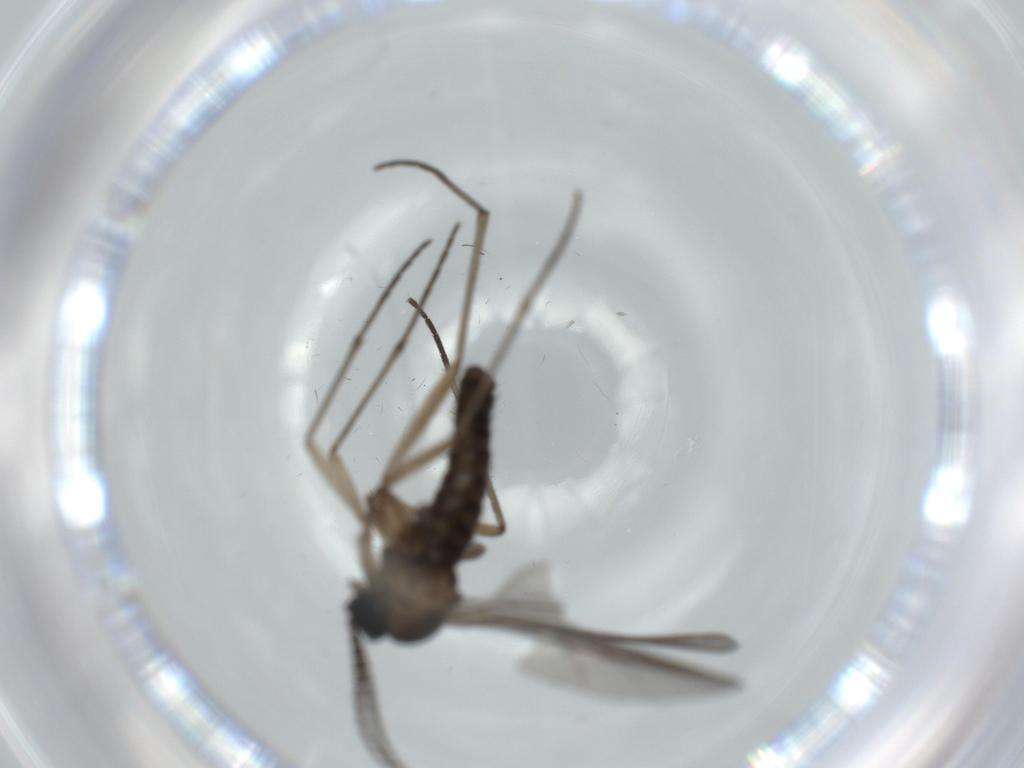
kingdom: Animalia
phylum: Arthropoda
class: Insecta
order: Diptera
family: Sciaridae
